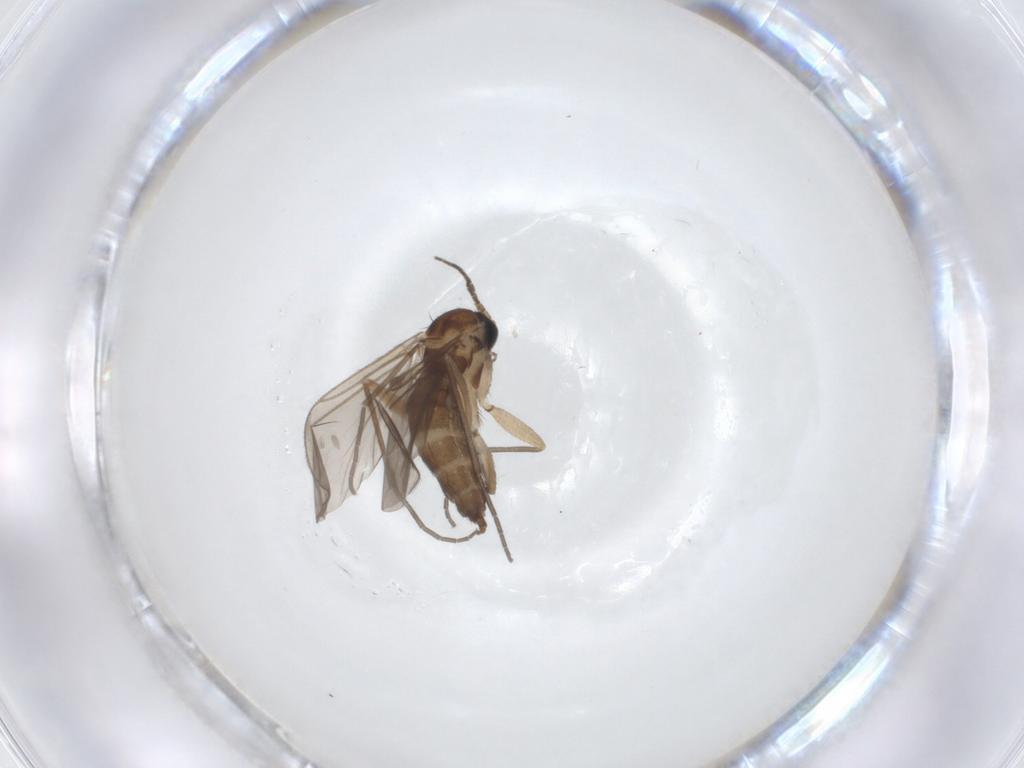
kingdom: Animalia
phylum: Arthropoda
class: Insecta
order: Diptera
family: Sciaridae
